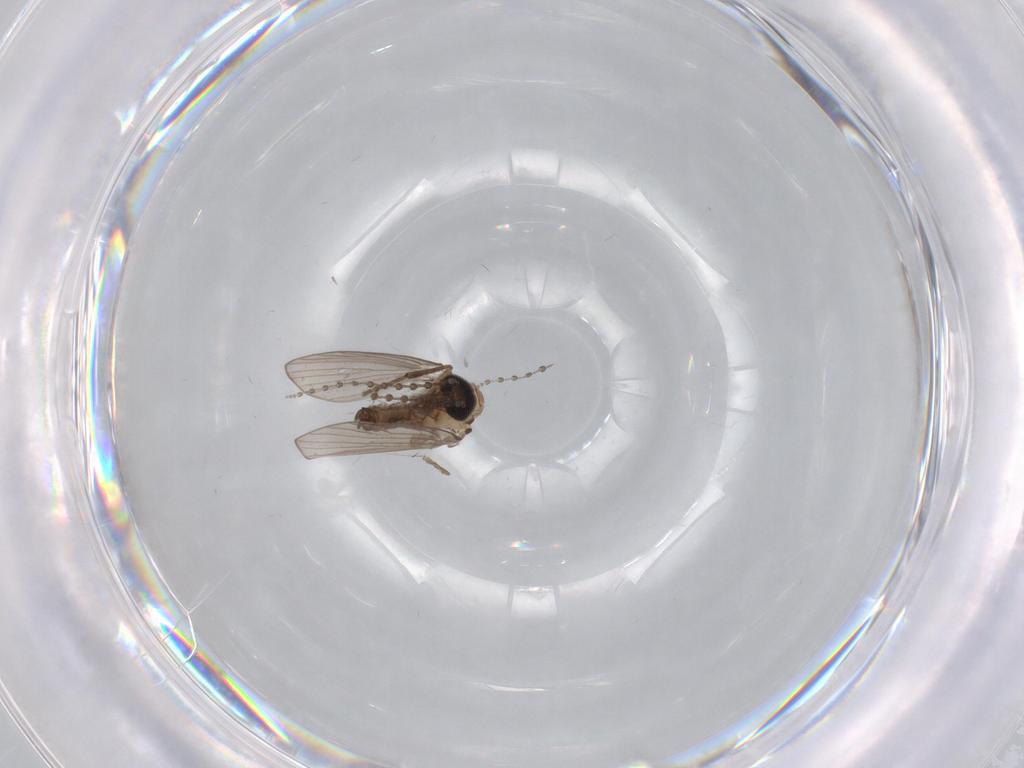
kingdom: Animalia
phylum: Arthropoda
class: Insecta
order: Diptera
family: Psychodidae
